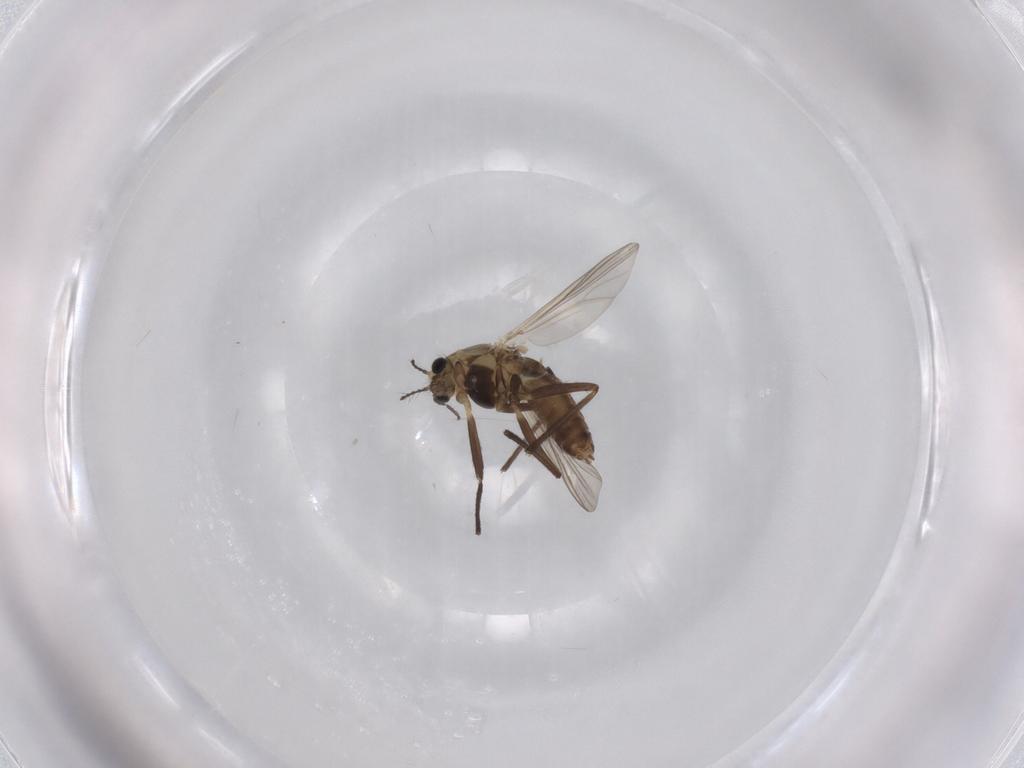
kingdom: Animalia
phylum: Arthropoda
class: Insecta
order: Diptera
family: Chironomidae
